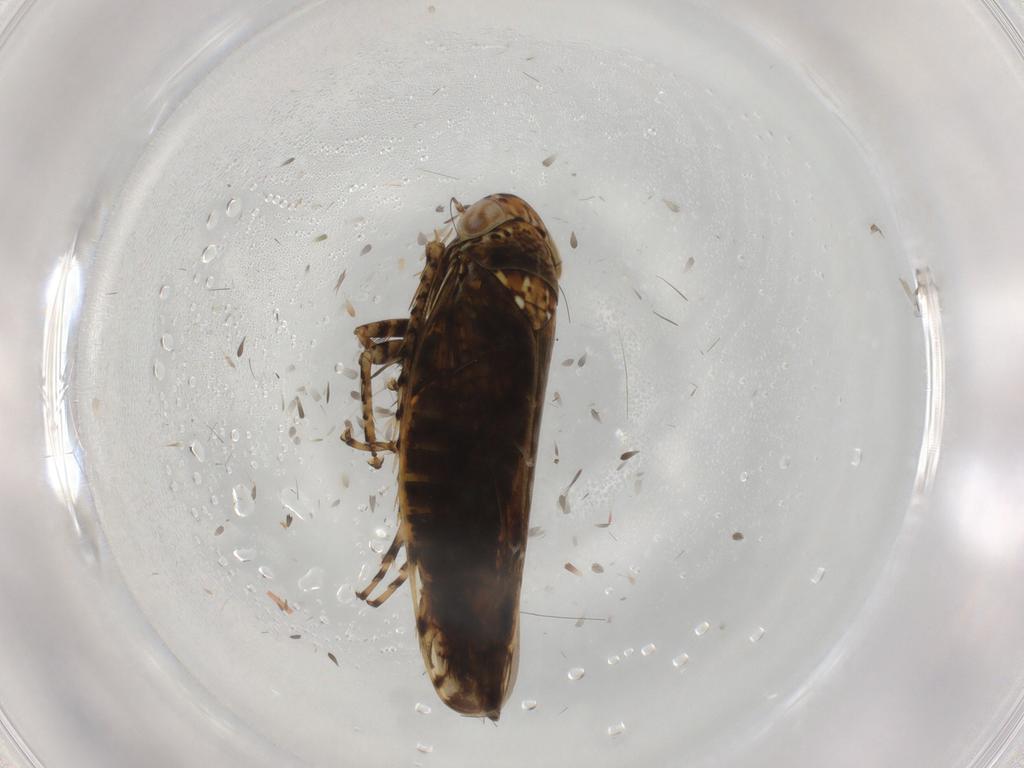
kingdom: Animalia
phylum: Arthropoda
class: Insecta
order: Hemiptera
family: Cicadellidae
